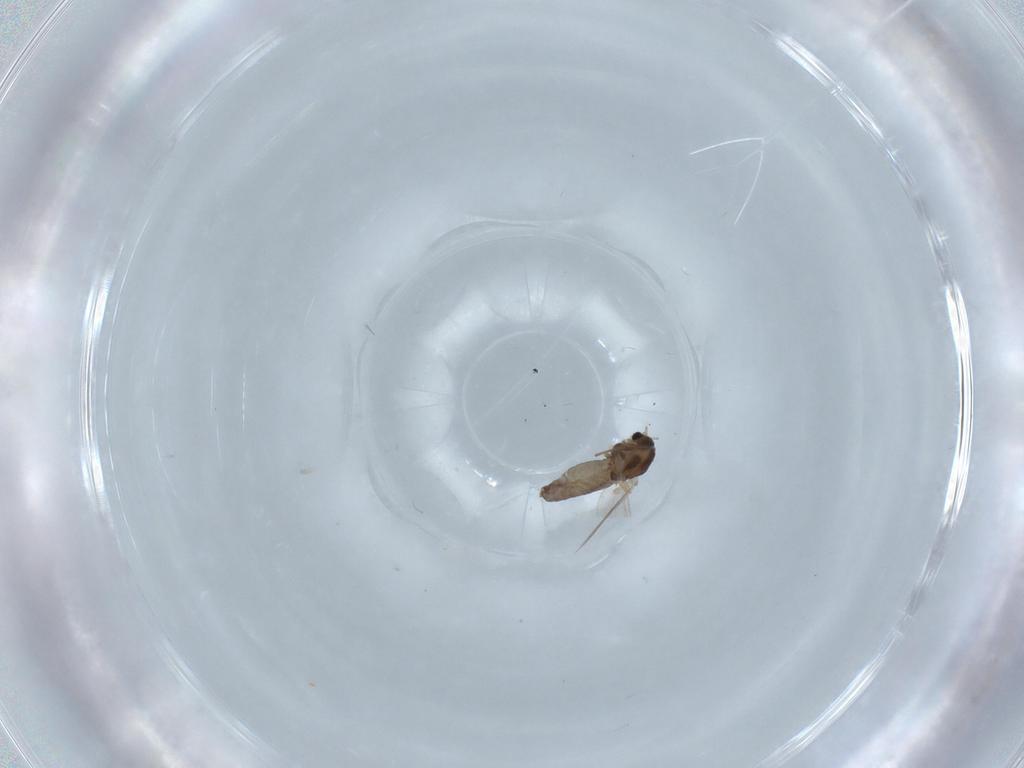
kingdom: Animalia
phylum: Arthropoda
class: Insecta
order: Diptera
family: Chironomidae
